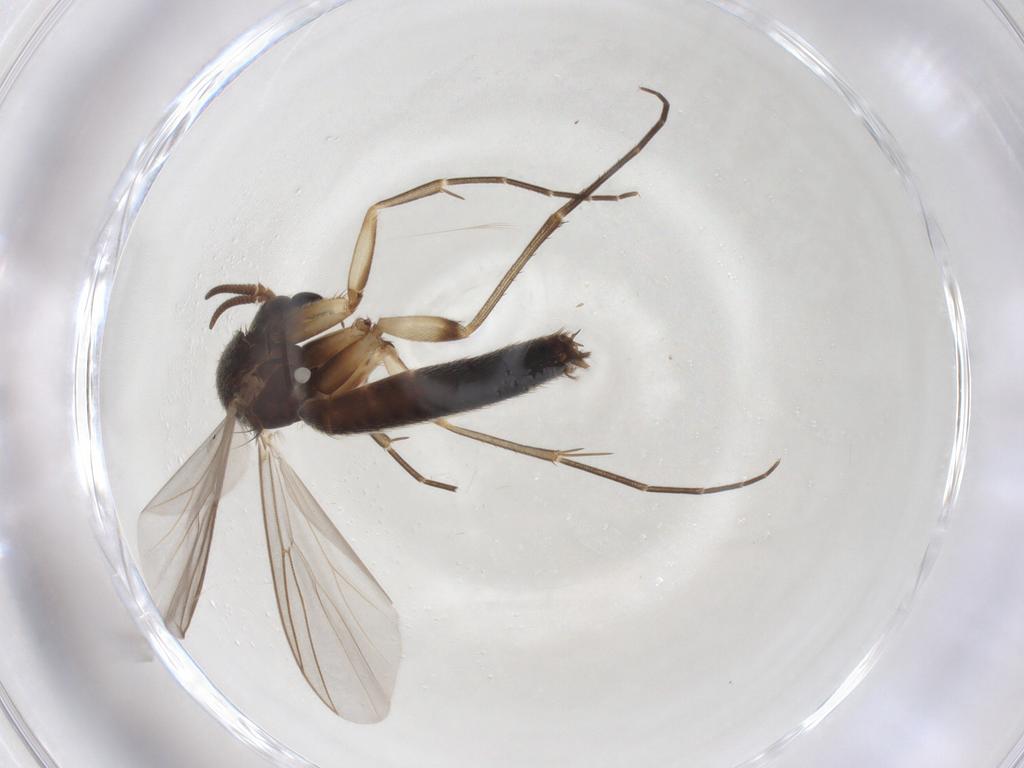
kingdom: Animalia
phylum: Arthropoda
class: Insecta
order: Diptera
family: Mycetophilidae
